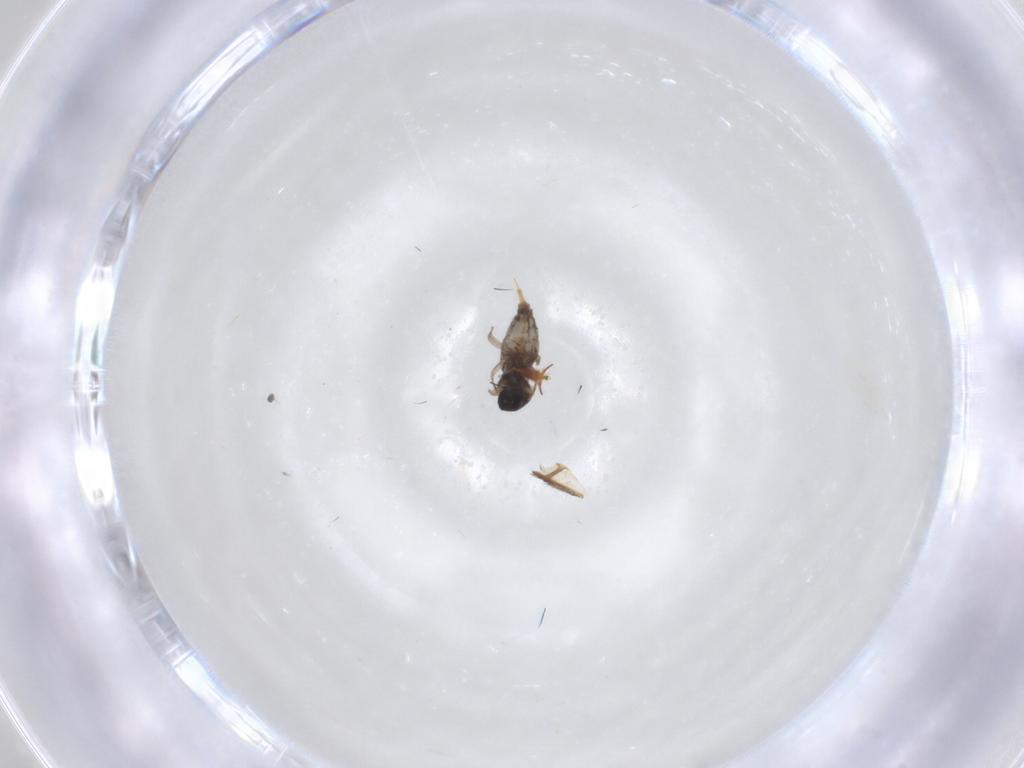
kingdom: Animalia
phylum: Arthropoda
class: Insecta
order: Diptera
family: Cecidomyiidae
